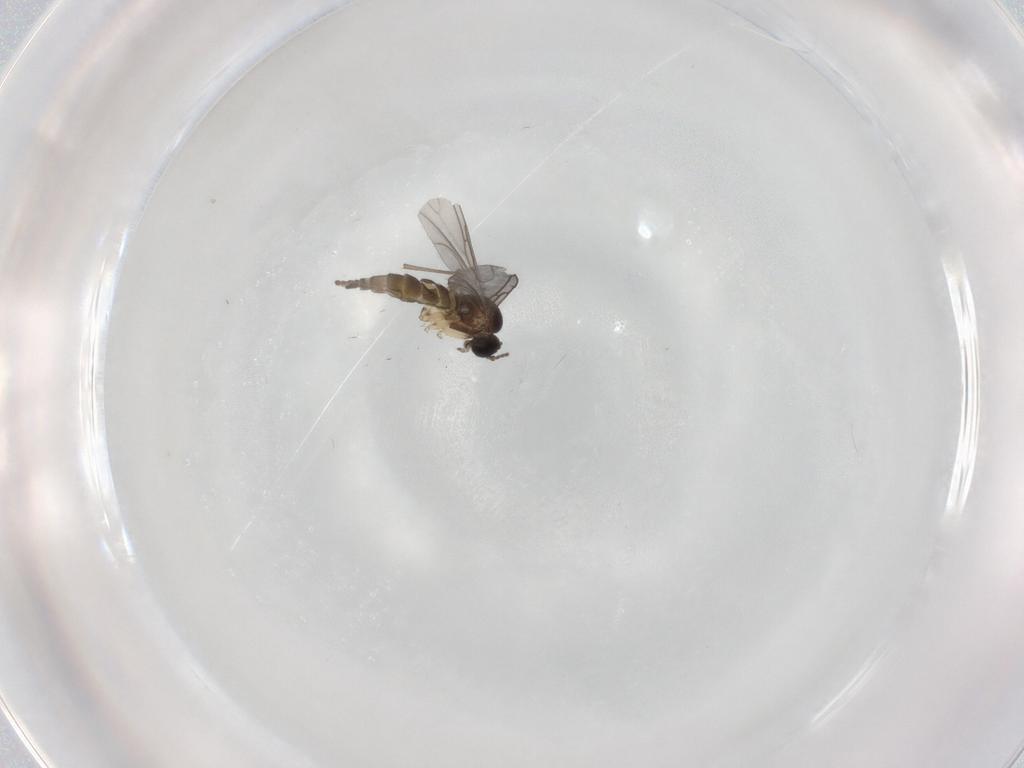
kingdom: Animalia
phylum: Arthropoda
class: Insecta
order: Diptera
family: Sciaridae
